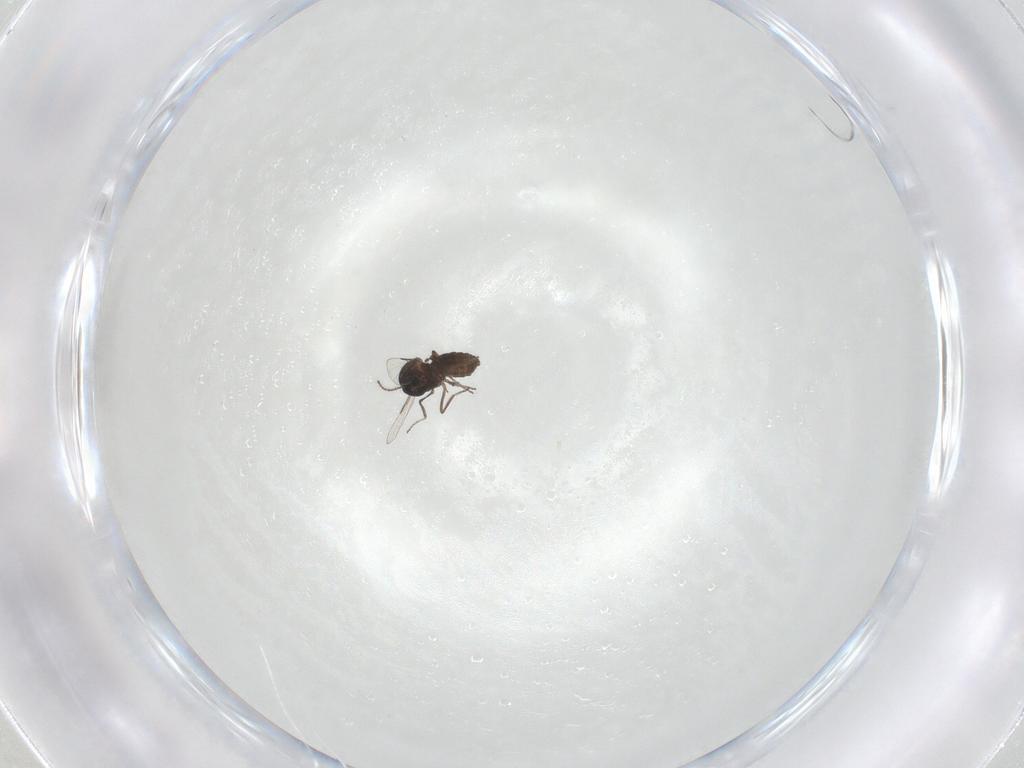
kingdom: Animalia
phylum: Arthropoda
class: Insecta
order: Diptera
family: Ceratopogonidae
